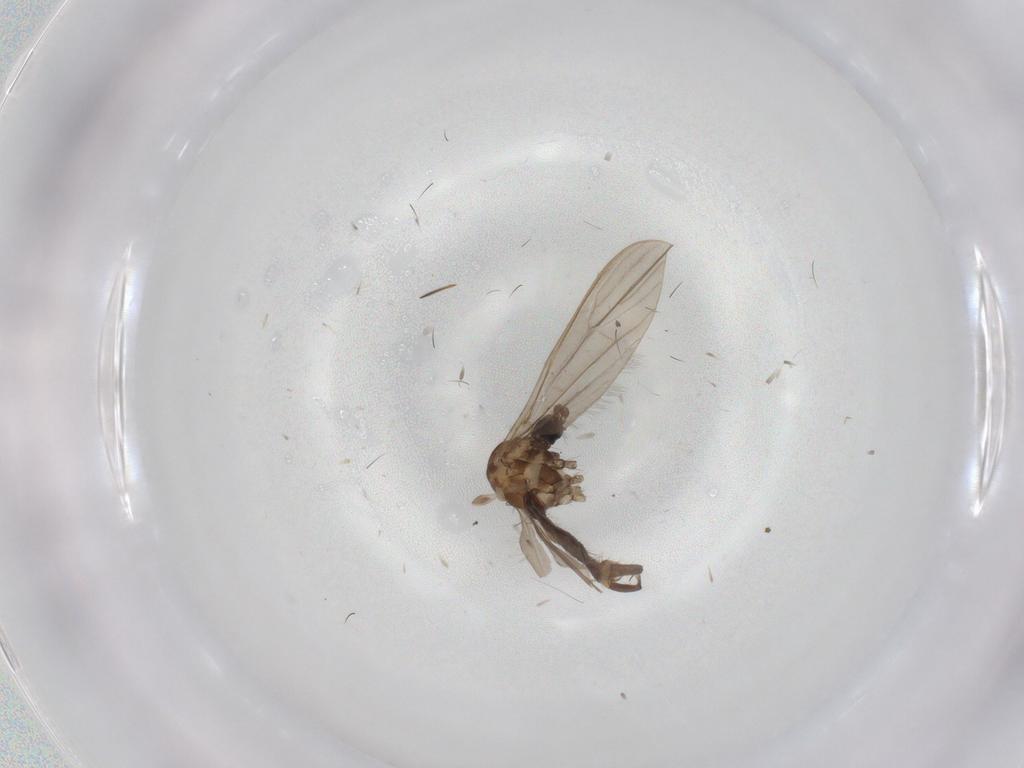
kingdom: Animalia
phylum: Arthropoda
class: Insecta
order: Diptera
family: Limoniidae
